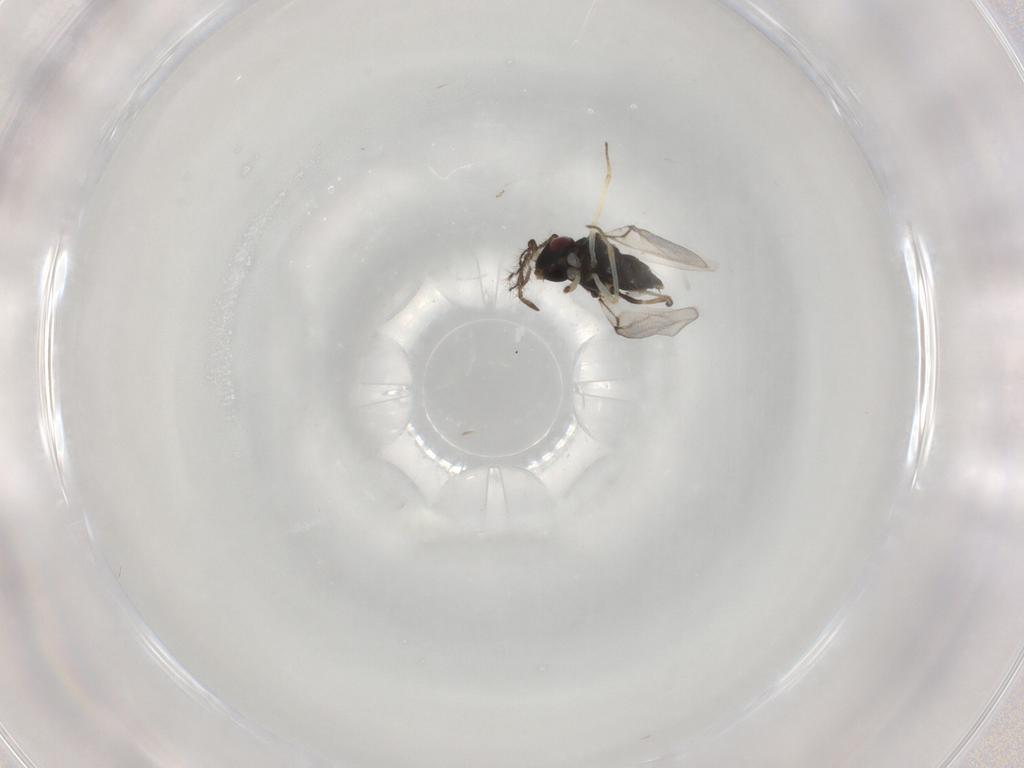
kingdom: Animalia
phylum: Arthropoda
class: Insecta
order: Hymenoptera
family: Encyrtidae
